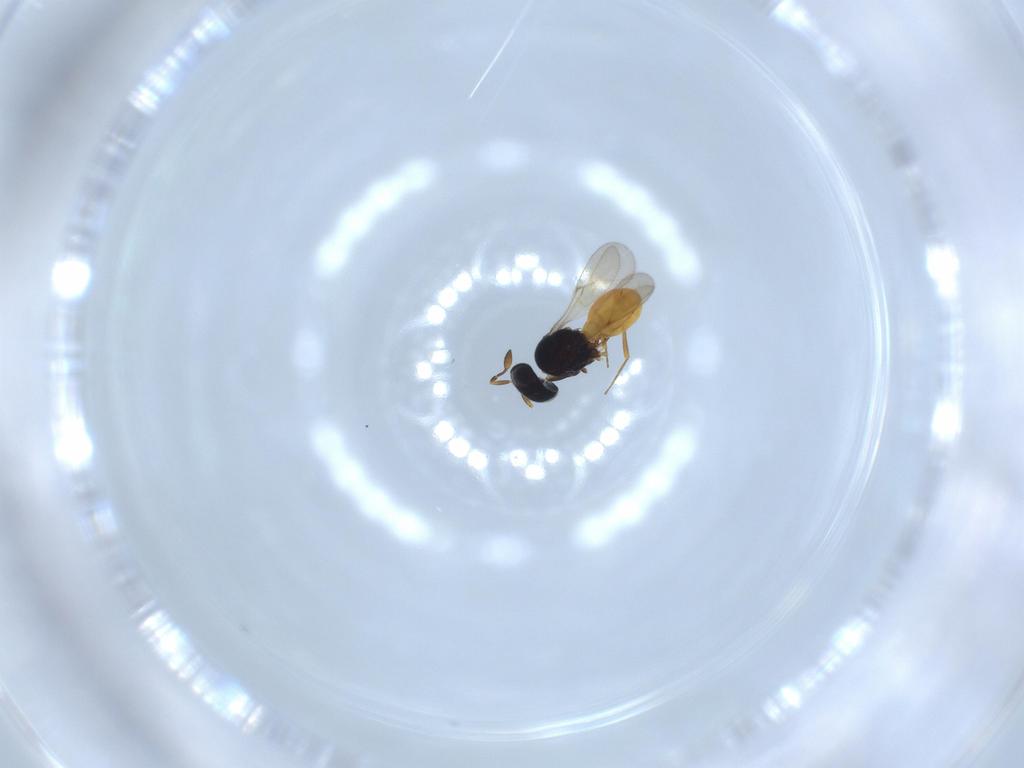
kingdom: Animalia
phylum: Arthropoda
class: Insecta
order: Hymenoptera
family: Scelionidae
